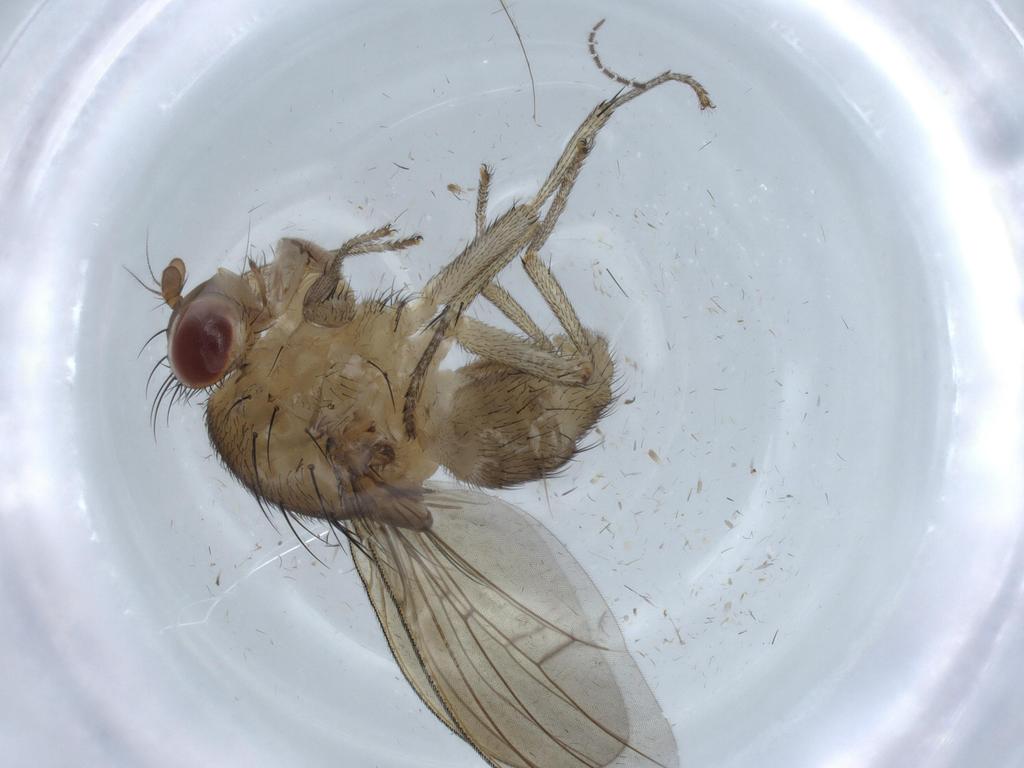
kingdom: Animalia
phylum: Arthropoda
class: Insecta
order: Diptera
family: Sciaridae
